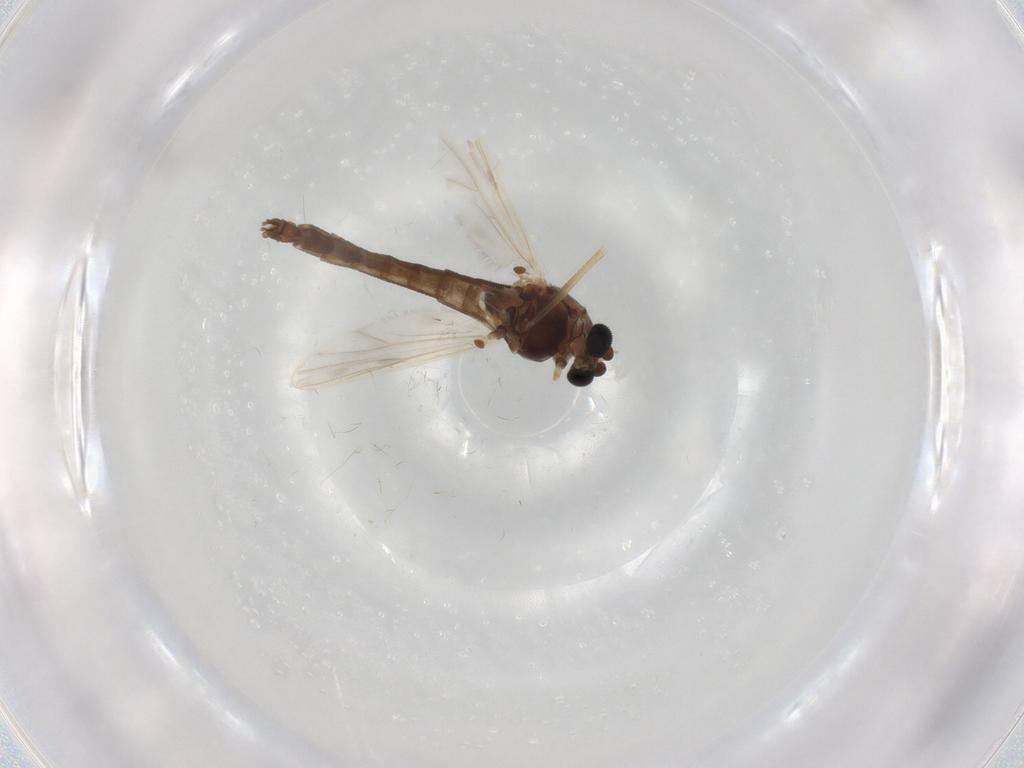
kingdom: Animalia
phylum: Arthropoda
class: Insecta
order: Diptera
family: Chironomidae
